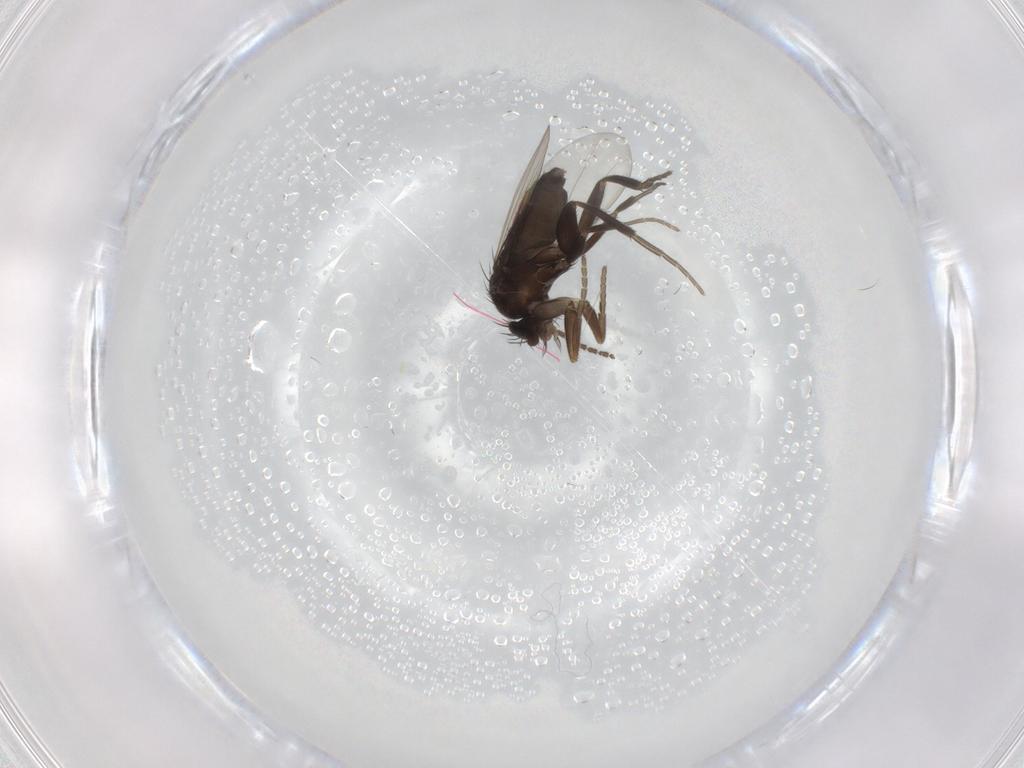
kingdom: Animalia
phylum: Arthropoda
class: Insecta
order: Diptera
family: Phoridae
